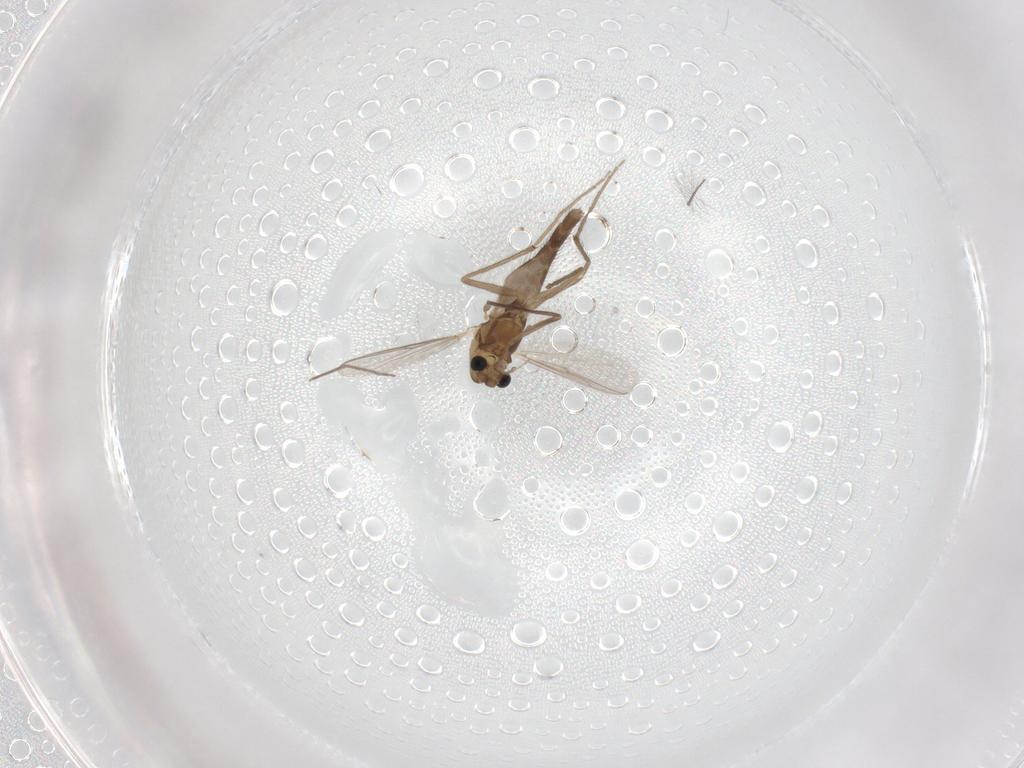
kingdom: Animalia
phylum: Arthropoda
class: Insecta
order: Diptera
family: Chironomidae
